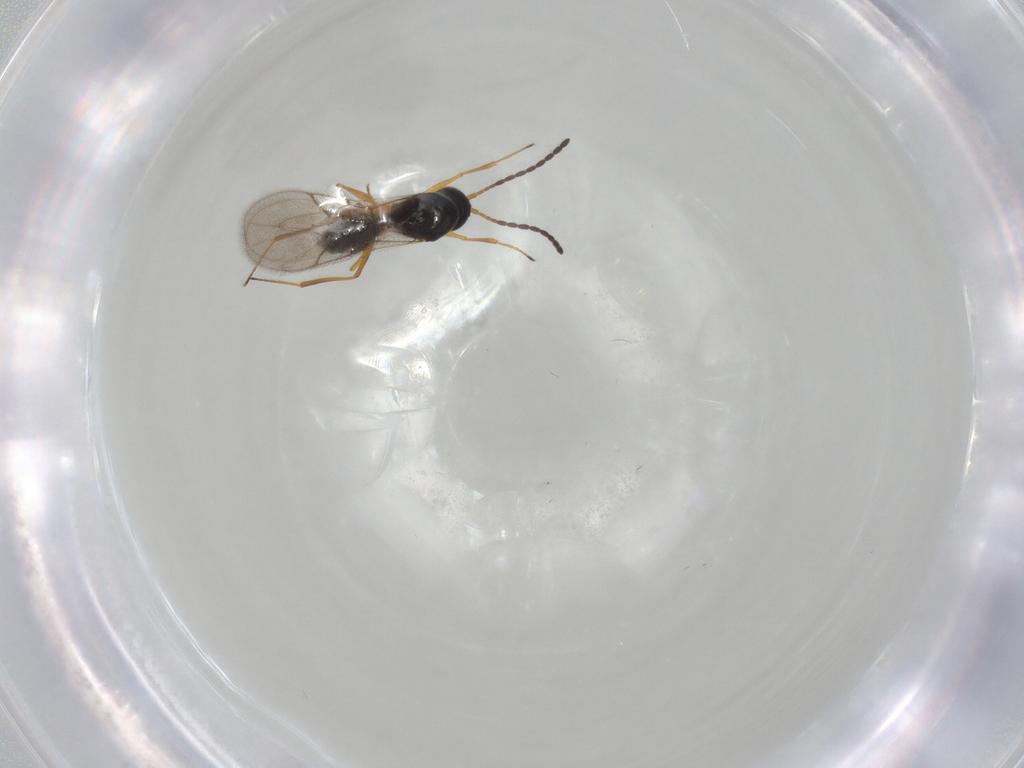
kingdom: Animalia
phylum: Arthropoda
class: Insecta
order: Hymenoptera
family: Figitidae
